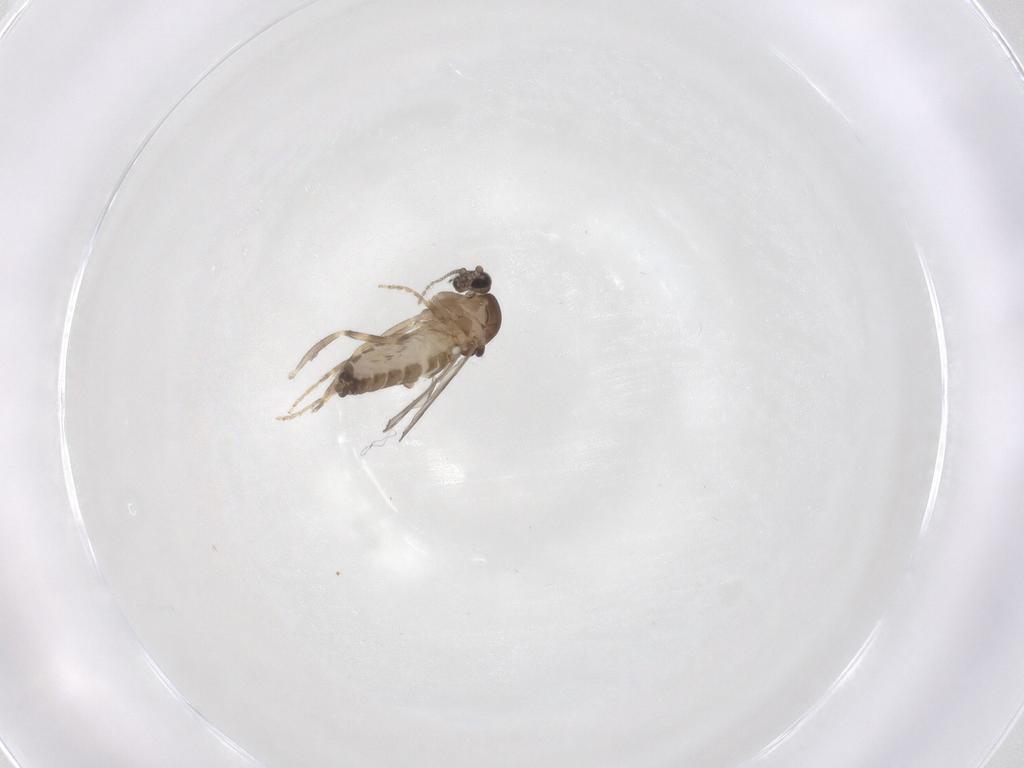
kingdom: Animalia
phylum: Arthropoda
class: Insecta
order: Diptera
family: Ceratopogonidae
